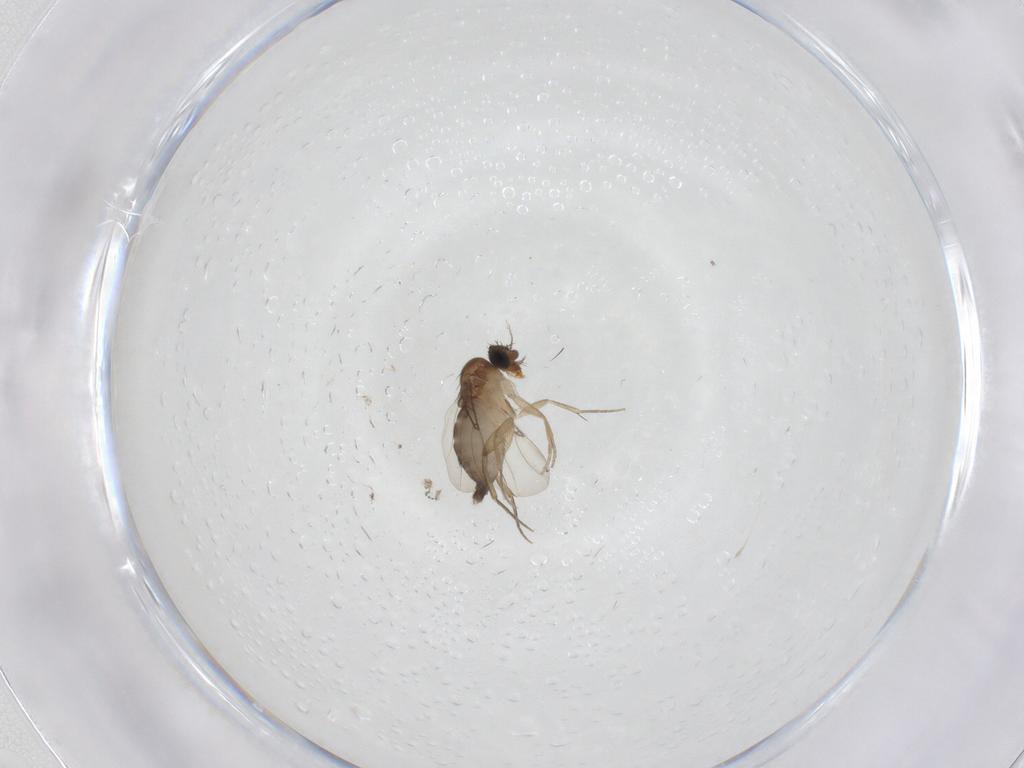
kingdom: Animalia
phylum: Arthropoda
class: Insecta
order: Diptera
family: Phoridae
